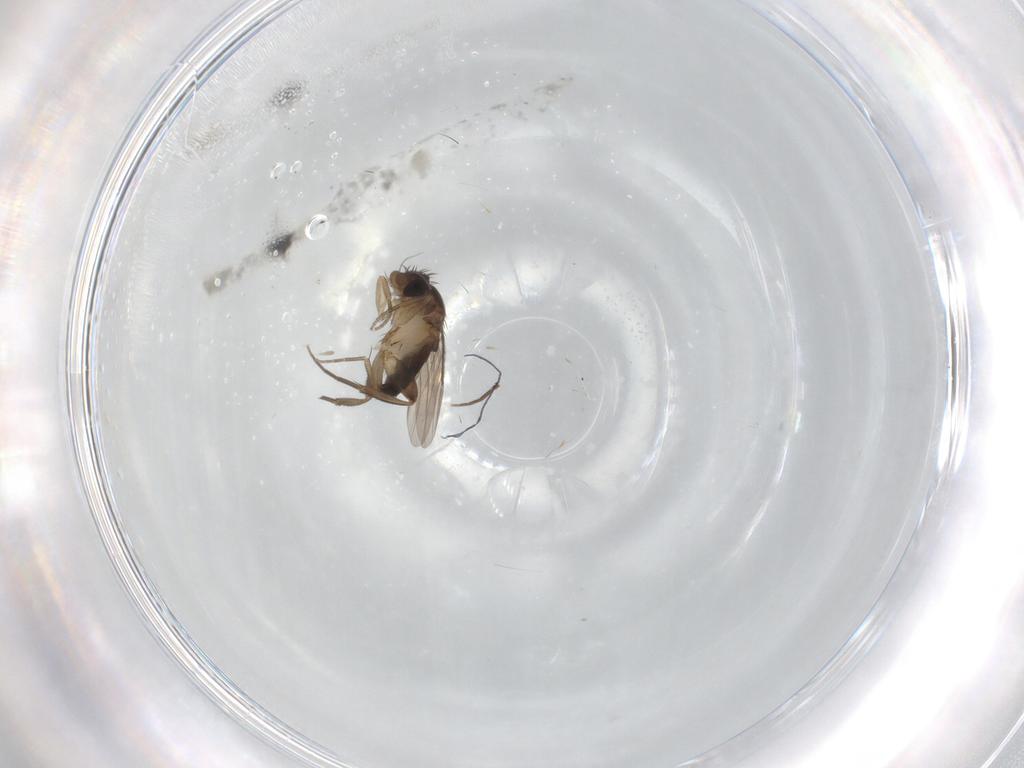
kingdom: Animalia
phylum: Arthropoda
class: Insecta
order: Diptera
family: Phoridae
